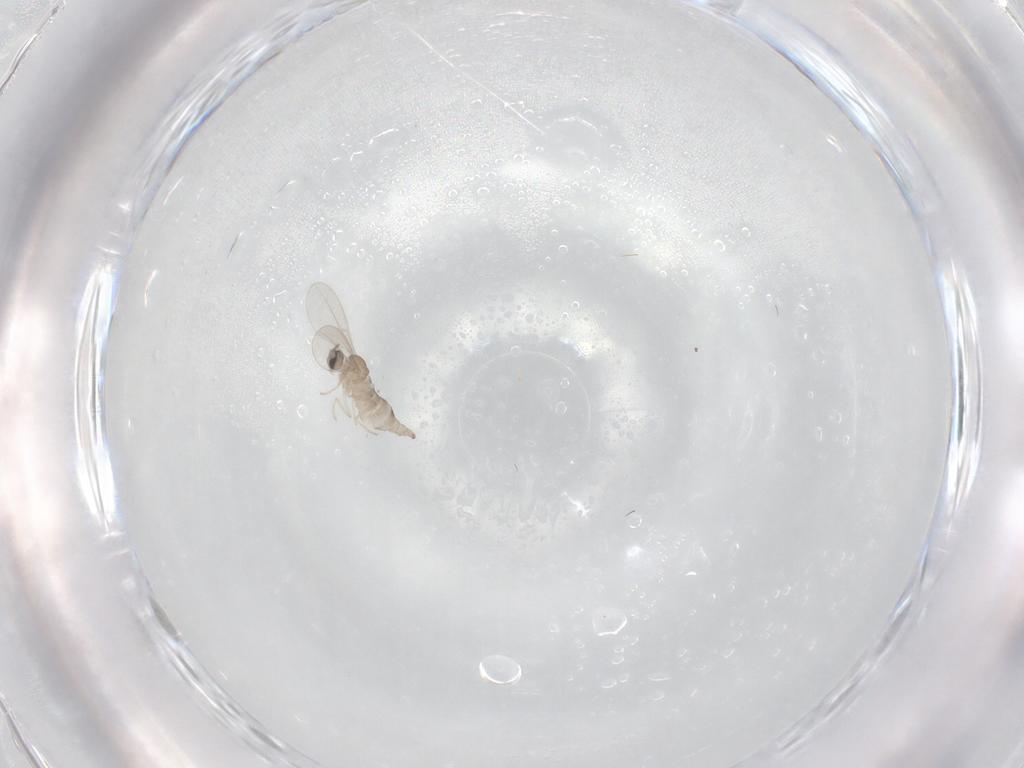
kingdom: Animalia
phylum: Arthropoda
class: Insecta
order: Diptera
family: Cecidomyiidae
